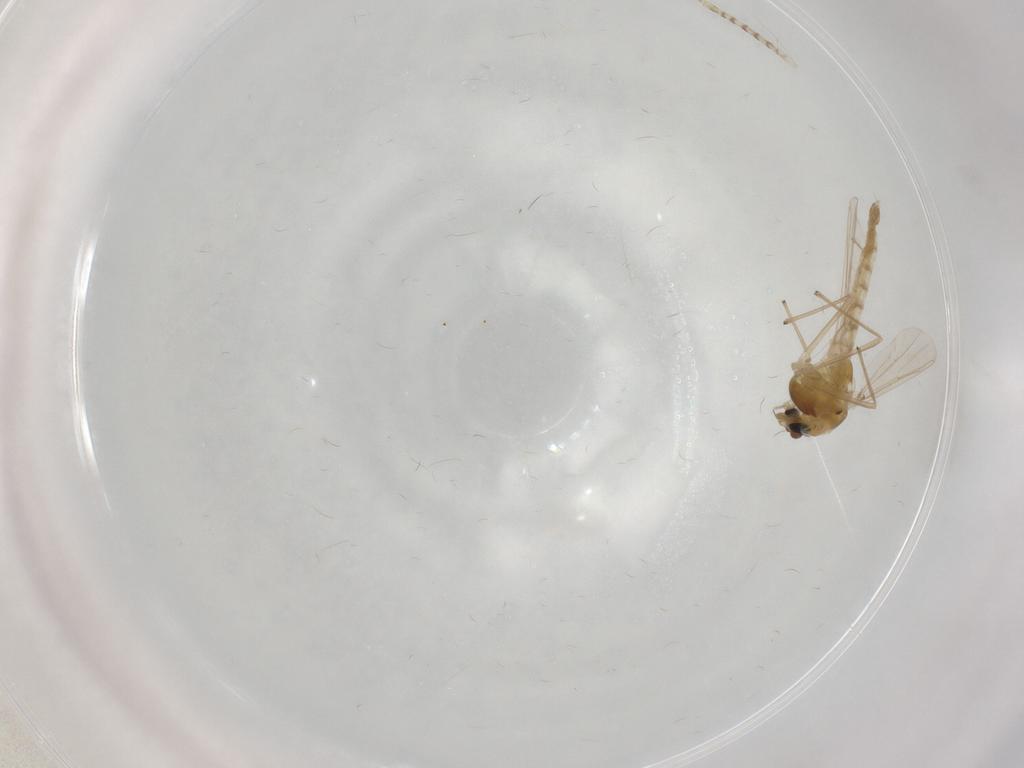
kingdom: Animalia
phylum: Arthropoda
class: Insecta
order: Diptera
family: Chironomidae
